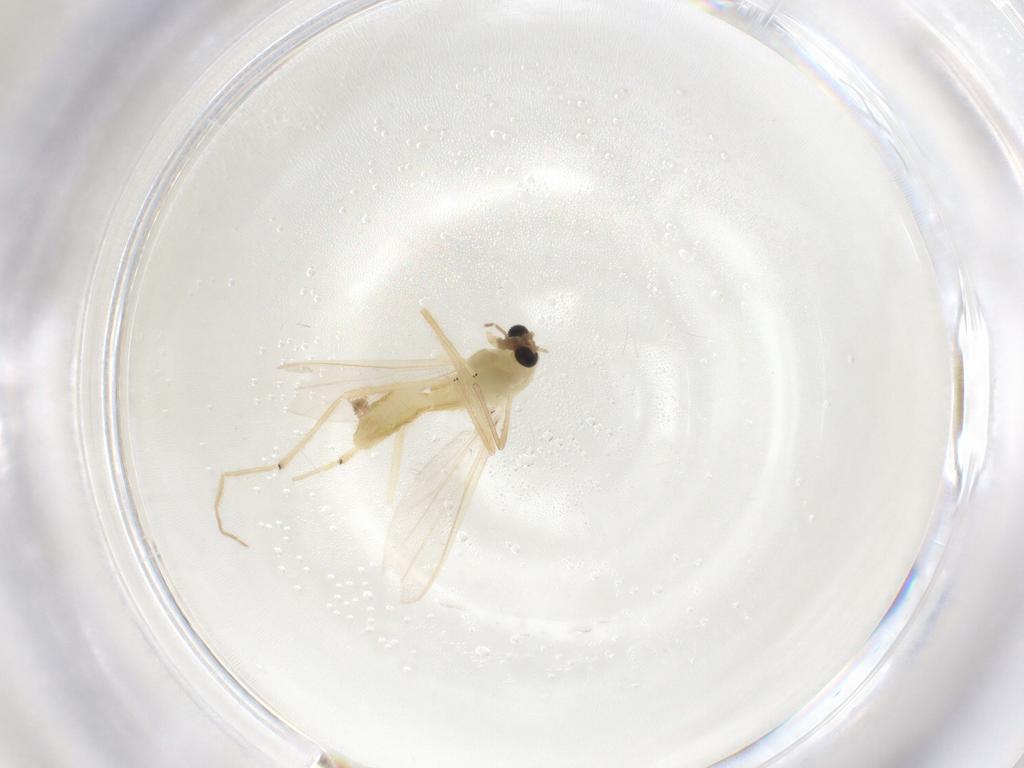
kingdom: Animalia
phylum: Arthropoda
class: Insecta
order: Diptera
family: Chironomidae
